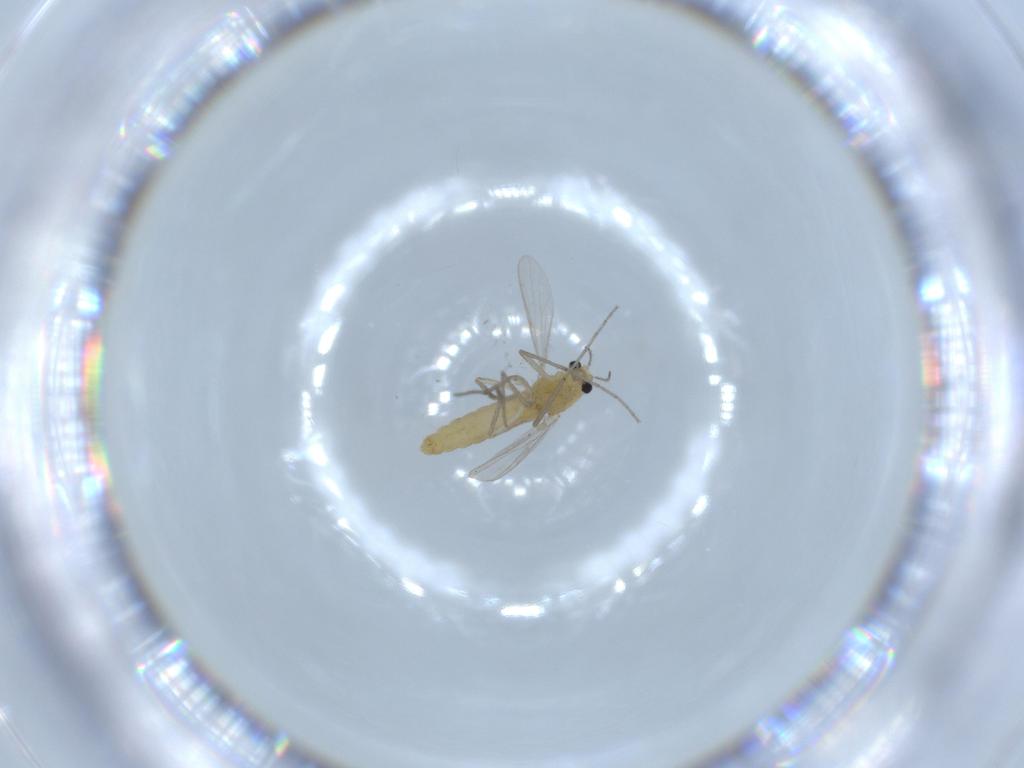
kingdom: Animalia
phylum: Arthropoda
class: Insecta
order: Diptera
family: Chironomidae
